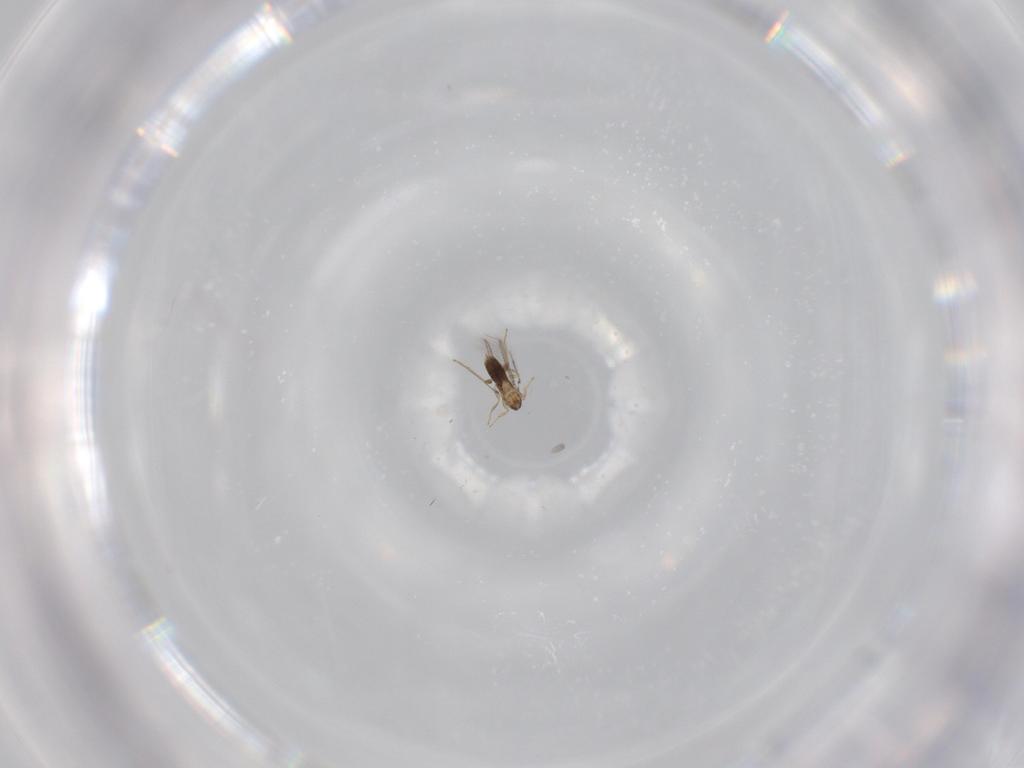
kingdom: Animalia
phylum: Arthropoda
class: Insecta
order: Hymenoptera
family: Mymaridae
